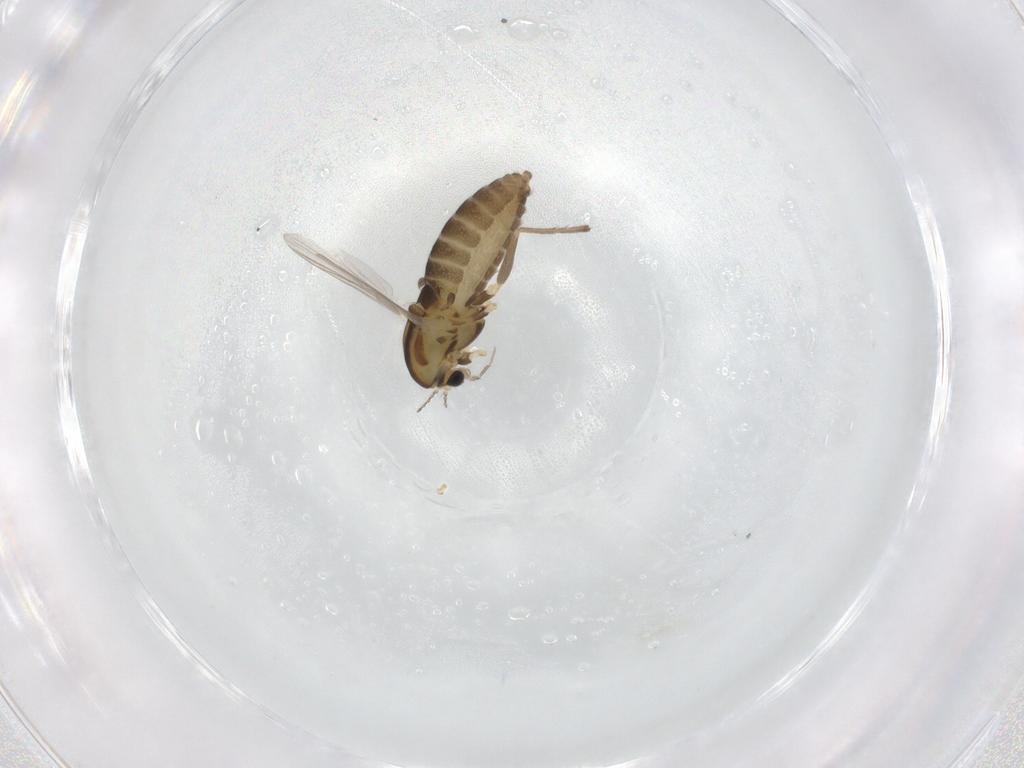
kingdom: Animalia
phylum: Arthropoda
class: Insecta
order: Diptera
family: Chironomidae
